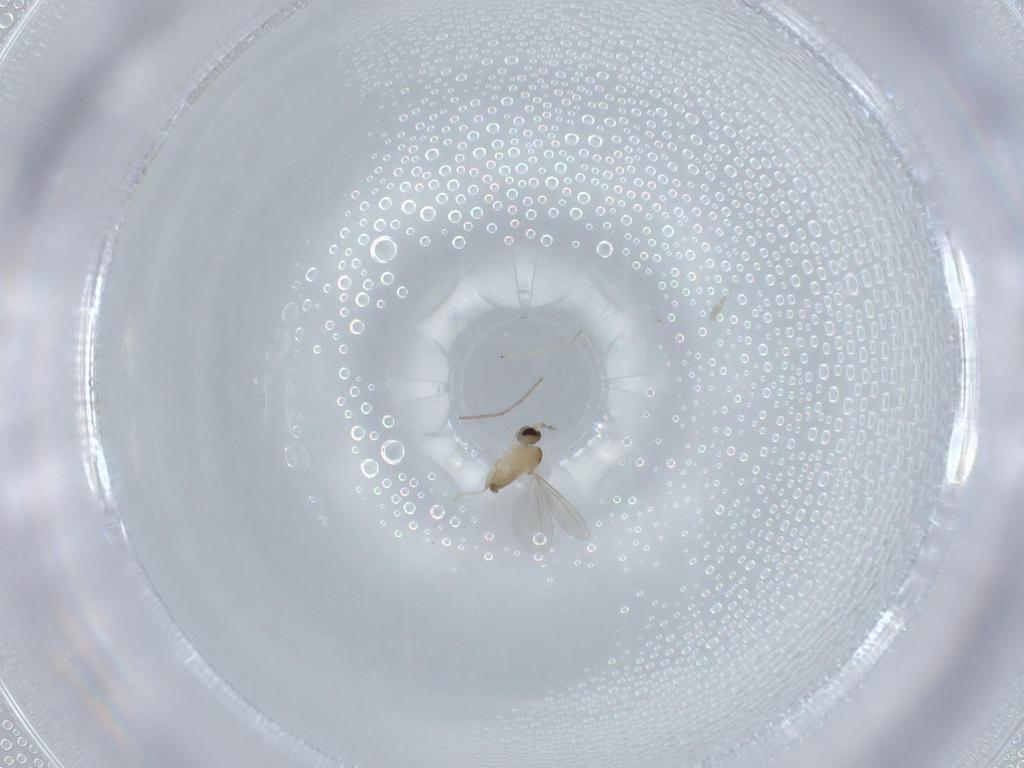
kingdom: Animalia
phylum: Arthropoda
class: Insecta
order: Diptera
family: Cecidomyiidae
